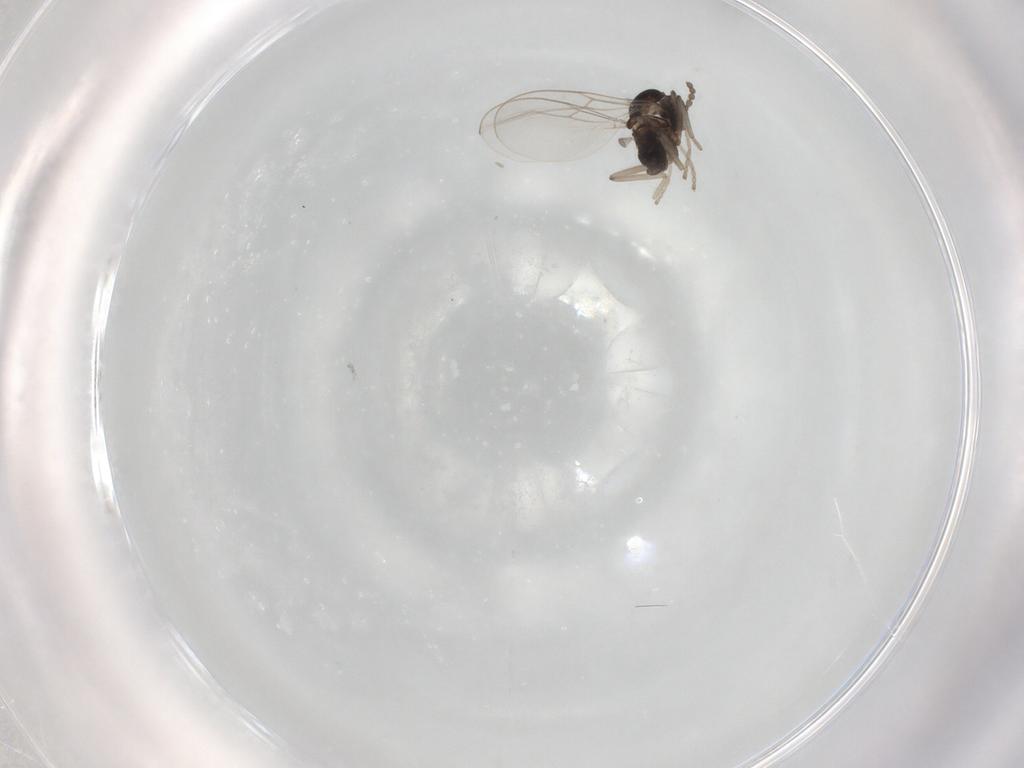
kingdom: Animalia
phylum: Arthropoda
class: Insecta
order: Diptera
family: Cecidomyiidae
